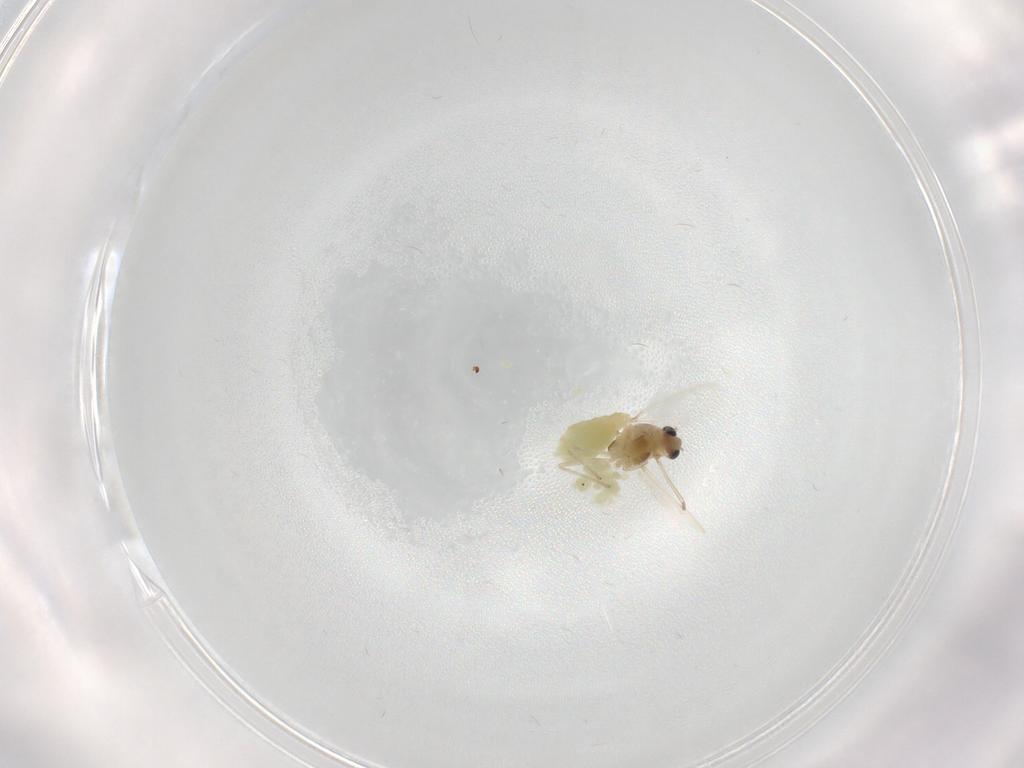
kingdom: Animalia
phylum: Arthropoda
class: Insecta
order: Diptera
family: Chironomidae
